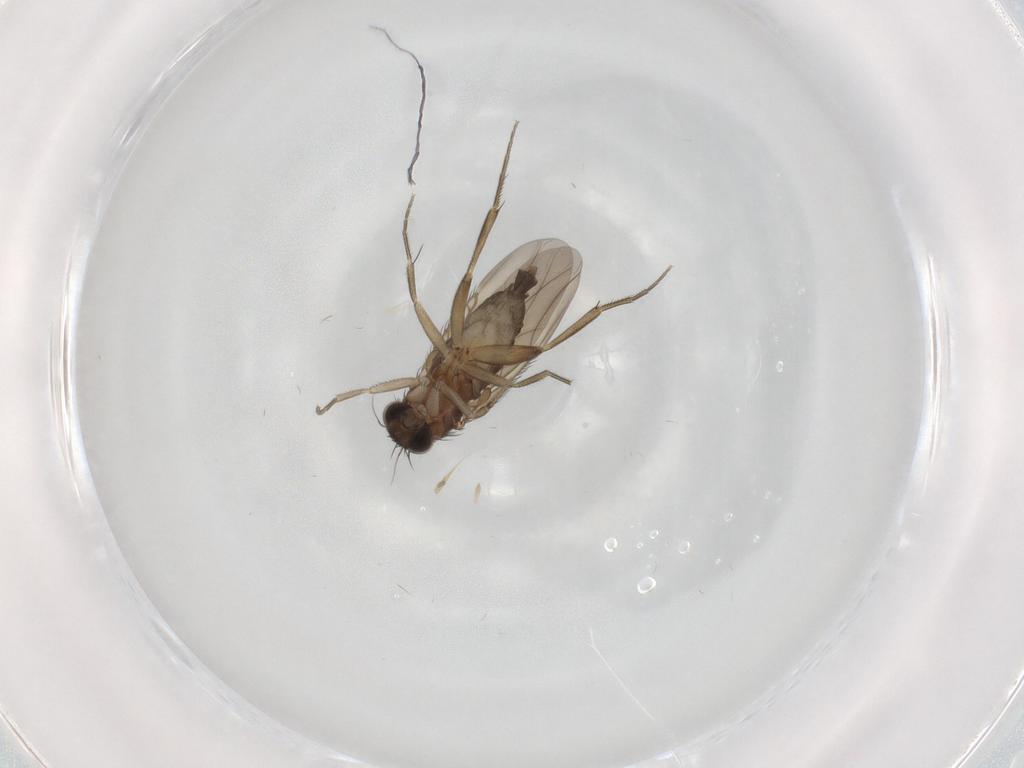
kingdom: Animalia
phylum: Arthropoda
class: Insecta
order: Diptera
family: Phoridae
